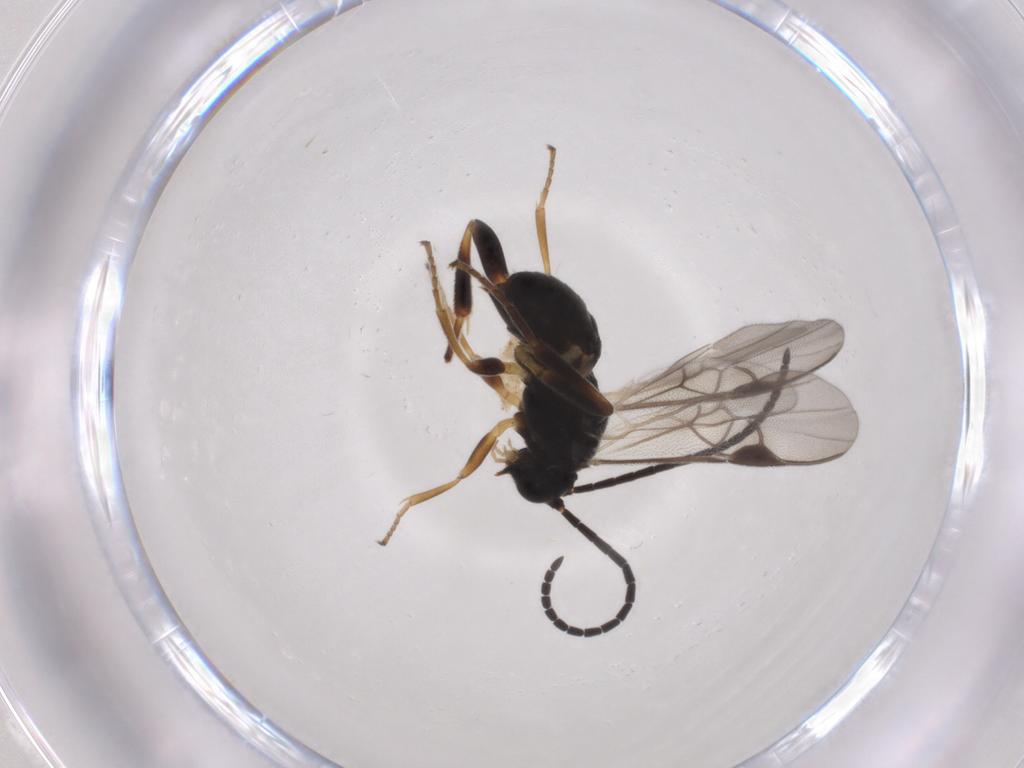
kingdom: Animalia
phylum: Arthropoda
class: Insecta
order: Hymenoptera
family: Braconidae
